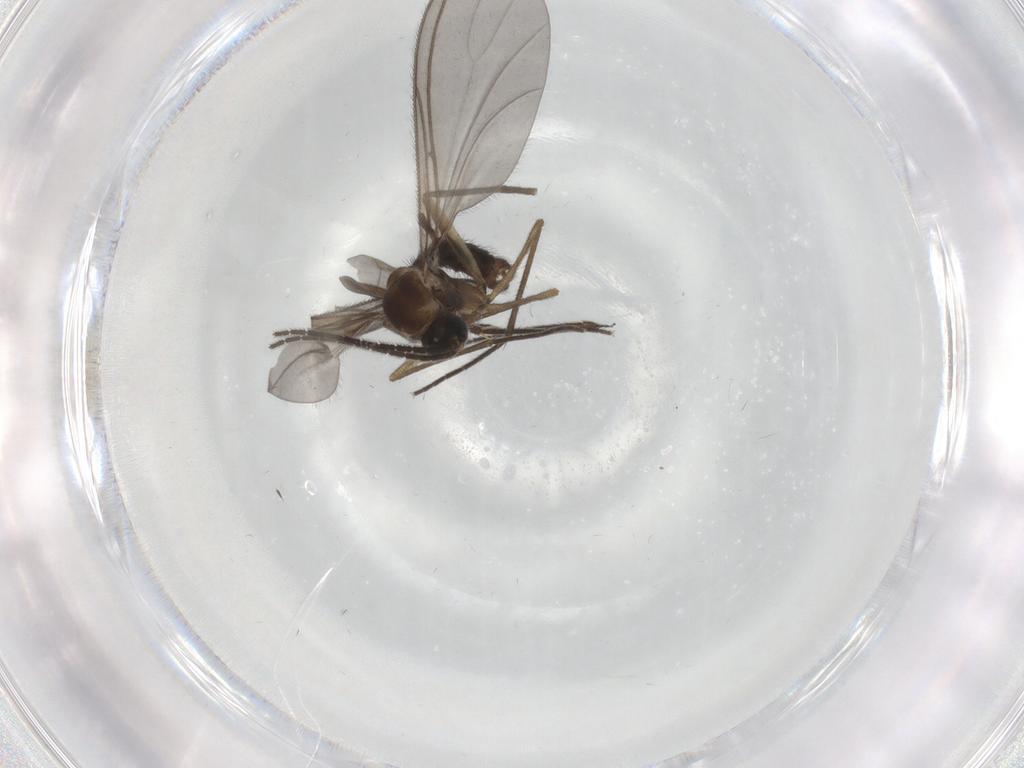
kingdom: Animalia
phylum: Arthropoda
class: Insecta
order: Diptera
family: Sciaridae
